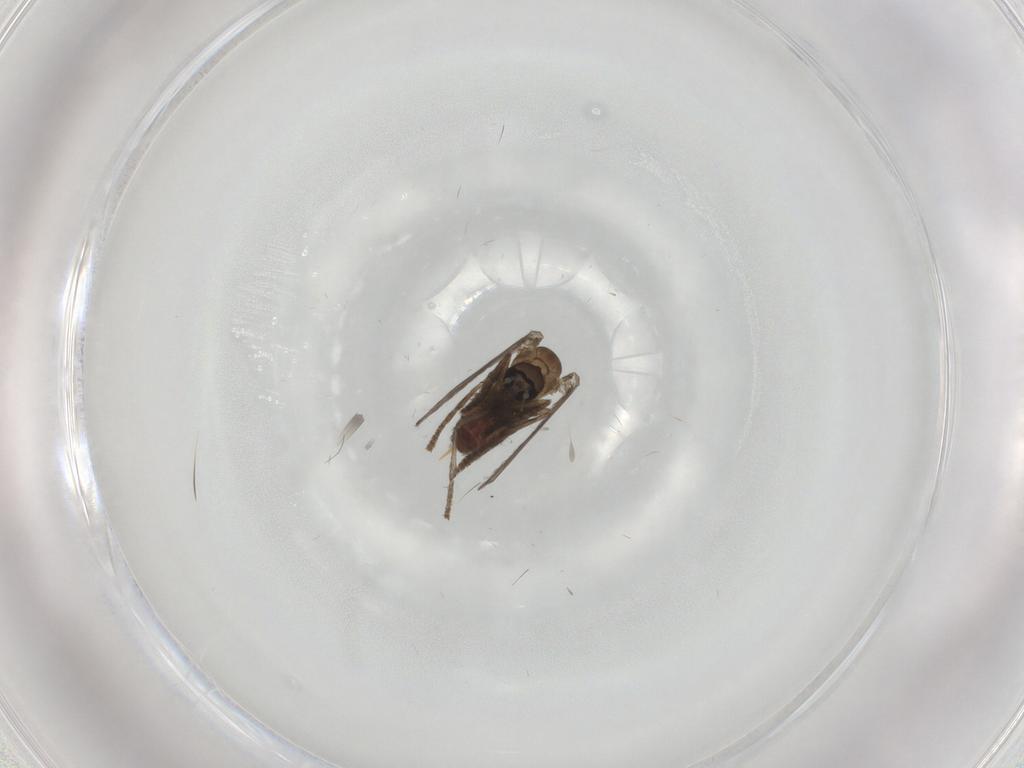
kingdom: Animalia
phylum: Arthropoda
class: Insecta
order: Diptera
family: Psychodidae
